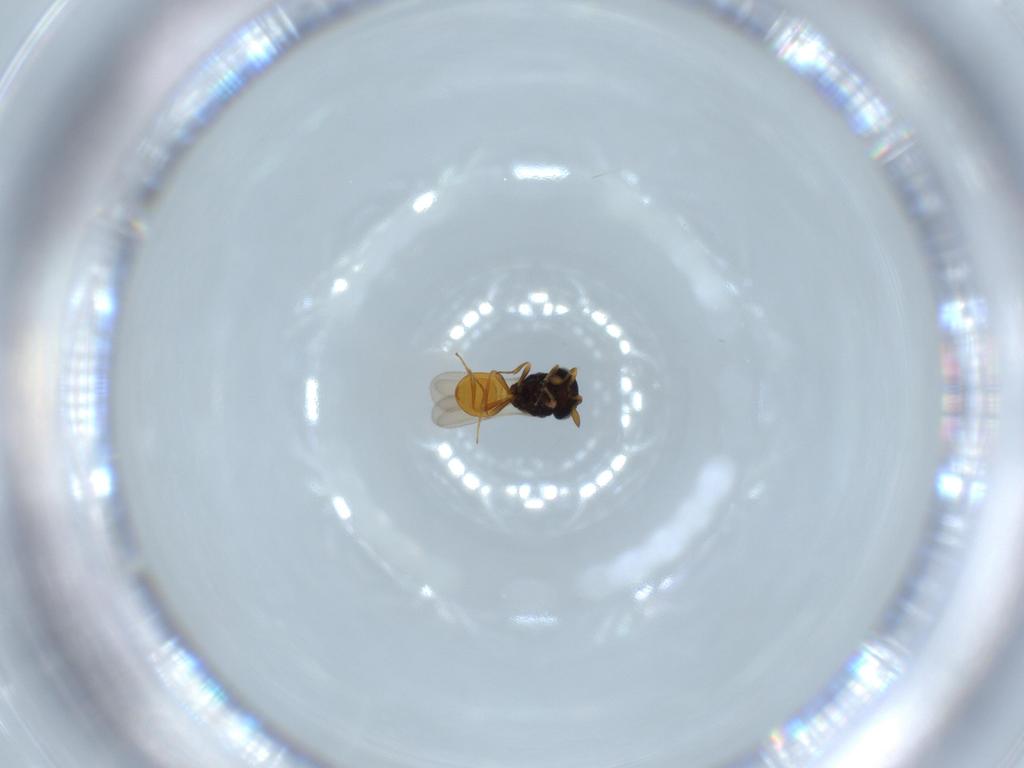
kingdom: Animalia
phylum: Arthropoda
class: Insecta
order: Hymenoptera
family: Scelionidae
